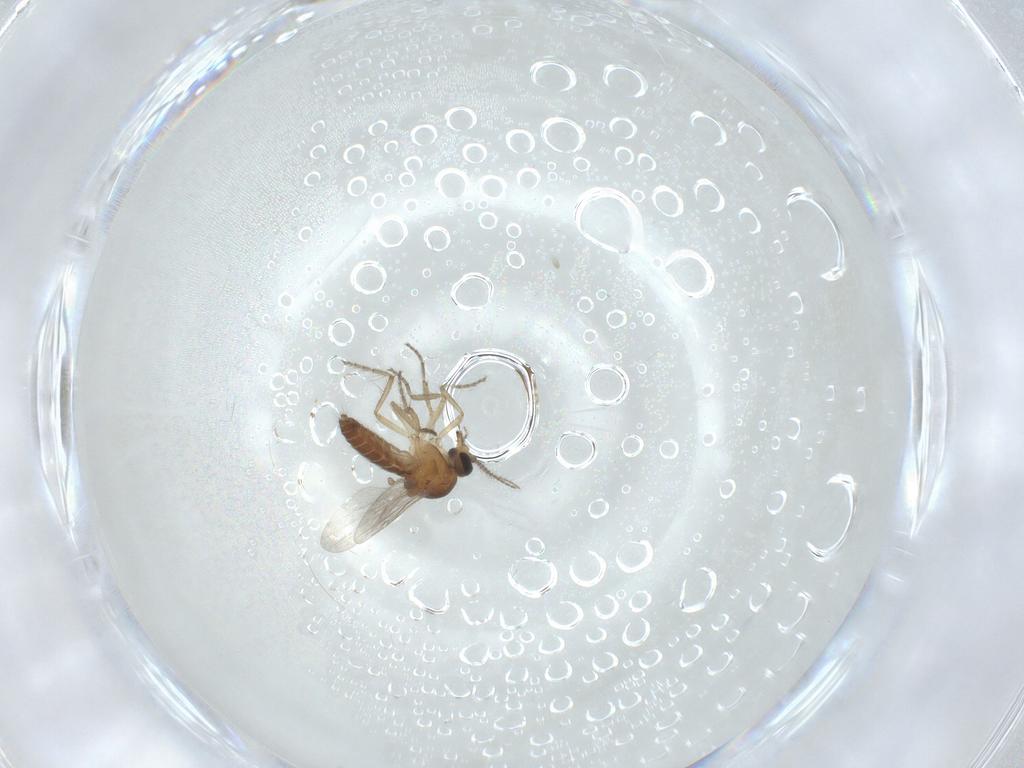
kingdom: Animalia
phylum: Arthropoda
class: Insecta
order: Diptera
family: Ceratopogonidae
